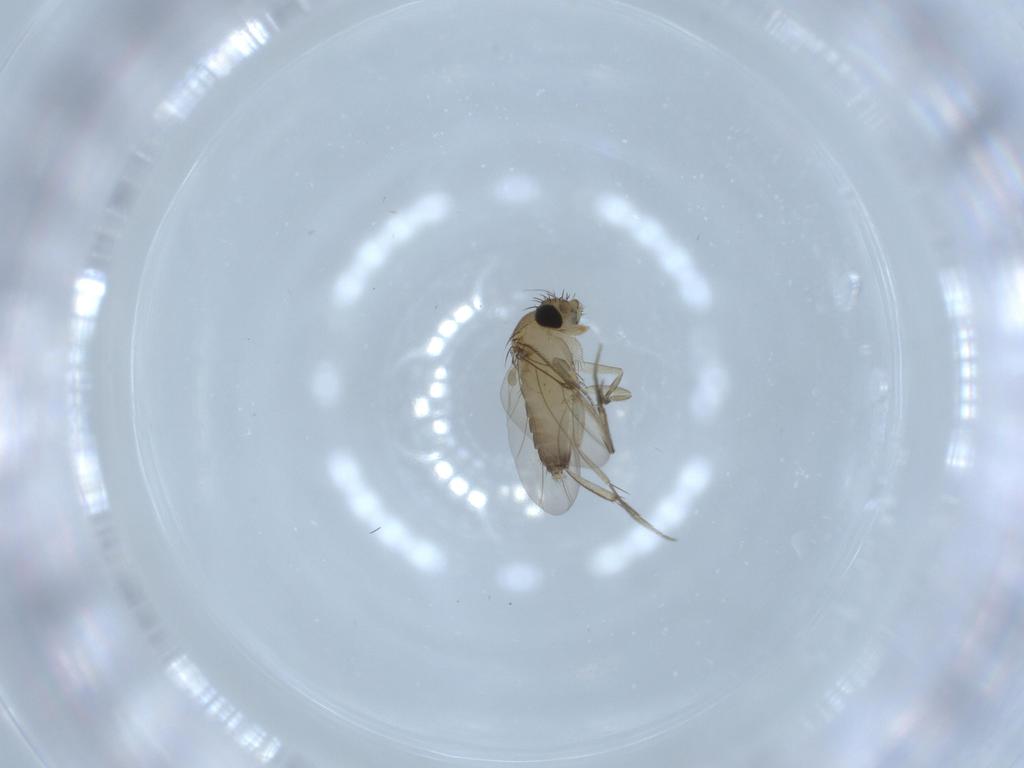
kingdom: Animalia
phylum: Arthropoda
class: Insecta
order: Diptera
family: Phoridae
